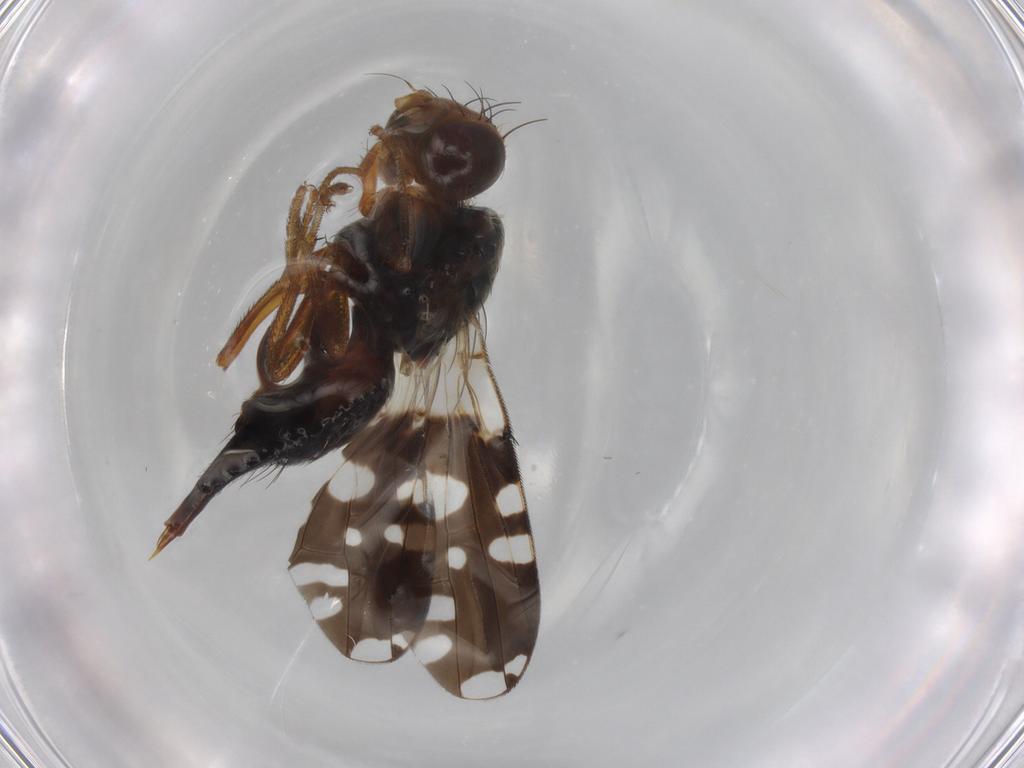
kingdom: Animalia
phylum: Arthropoda
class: Insecta
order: Diptera
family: Tephritidae
